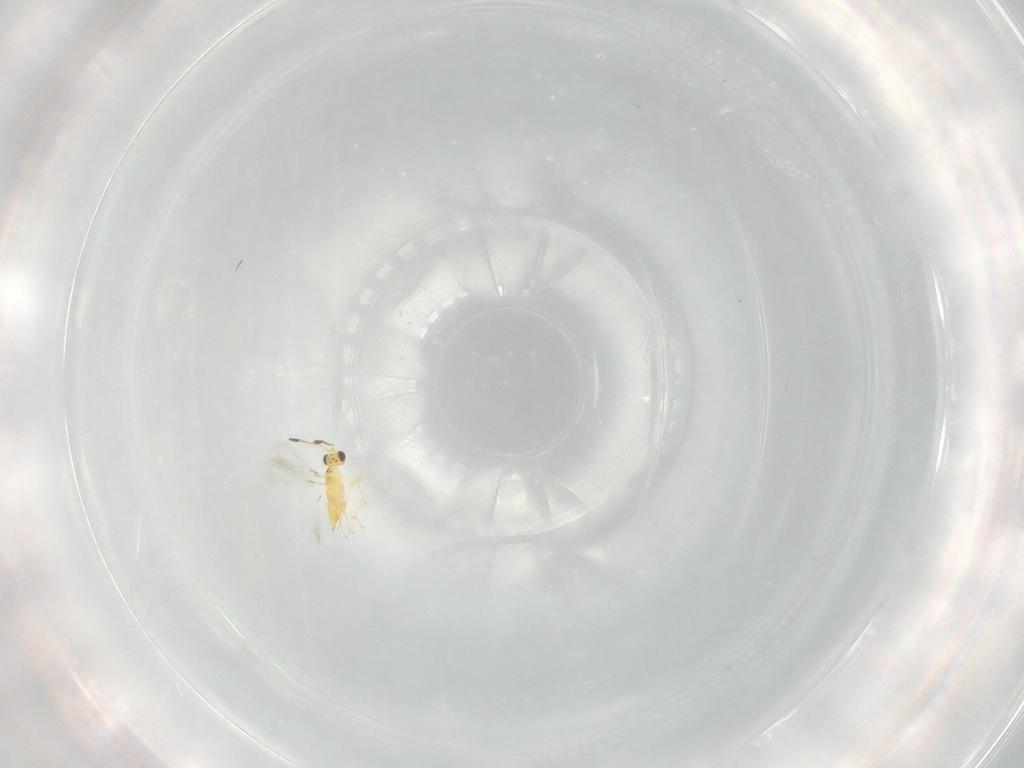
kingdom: Animalia
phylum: Arthropoda
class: Insecta
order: Hymenoptera
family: Mymaridae
